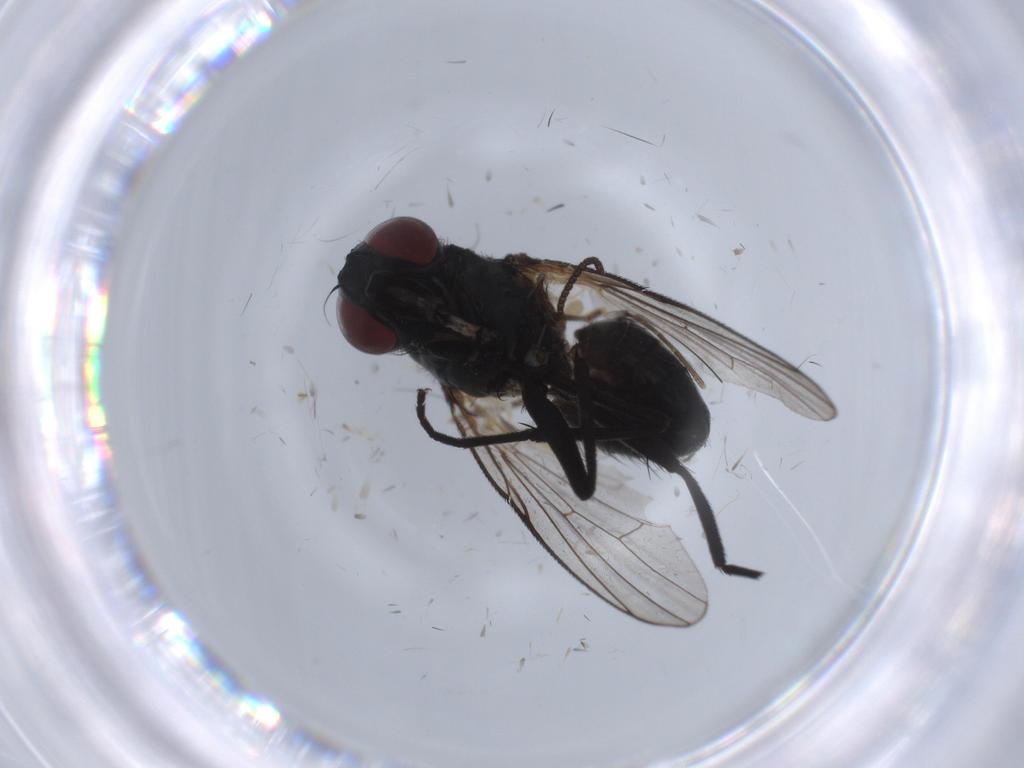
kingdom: Animalia
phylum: Arthropoda
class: Insecta
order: Diptera
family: Muscidae
